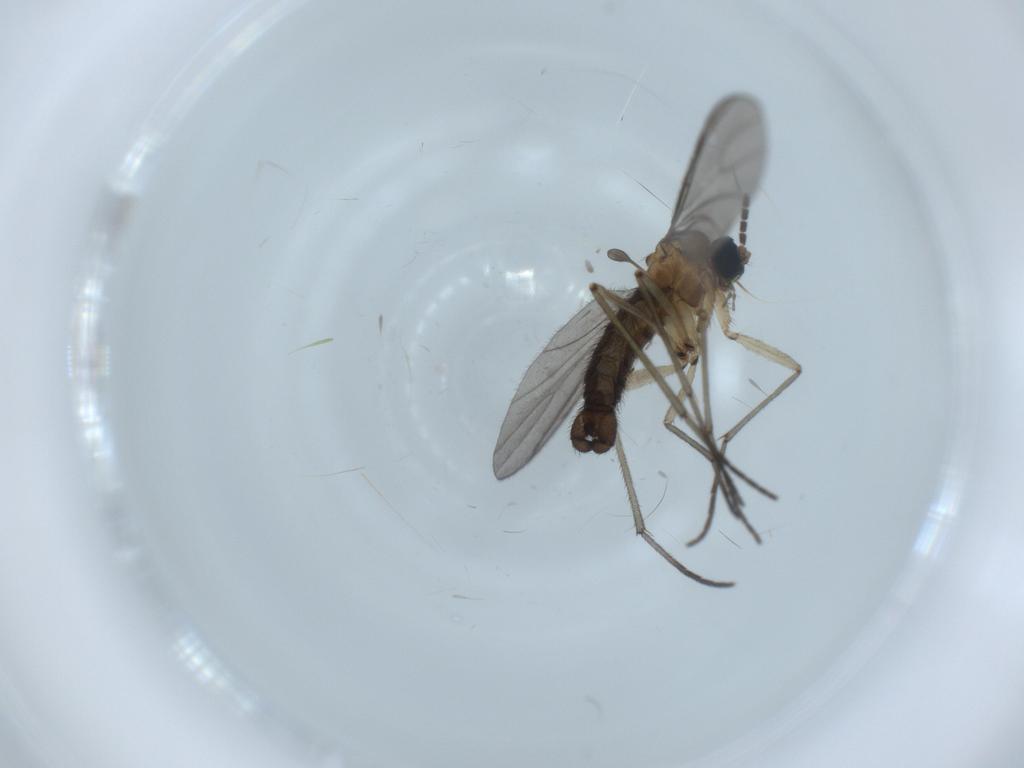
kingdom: Animalia
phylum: Arthropoda
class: Insecta
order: Diptera
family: Sciaridae
